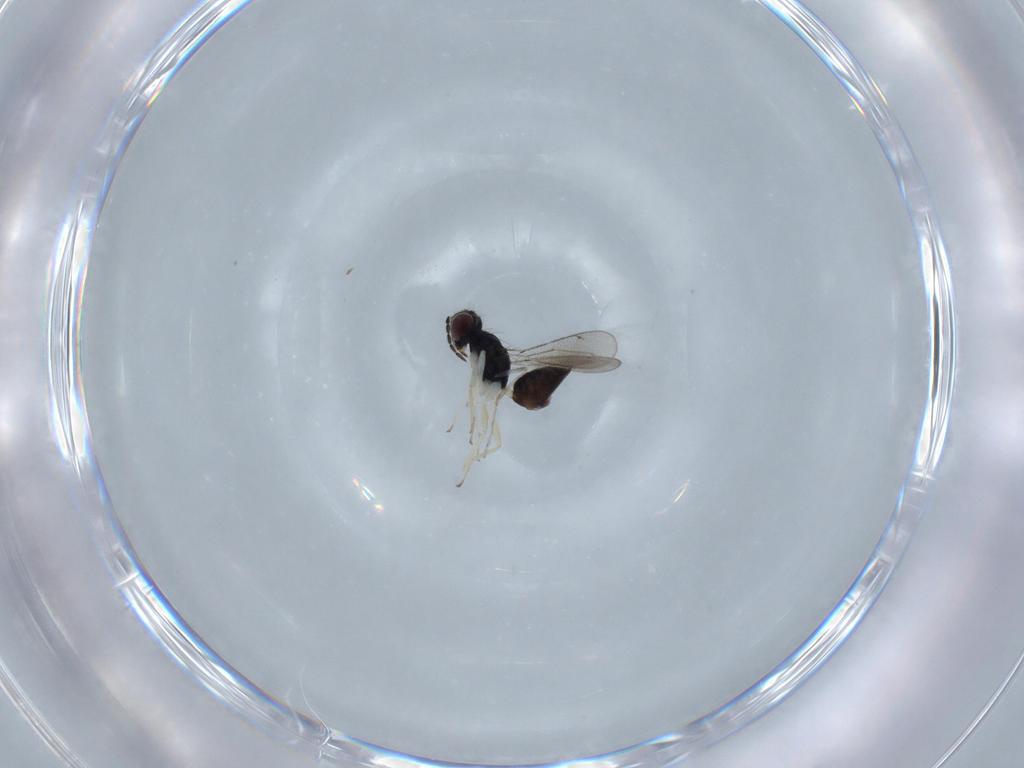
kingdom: Animalia
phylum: Arthropoda
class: Insecta
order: Hymenoptera
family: Eulophidae
